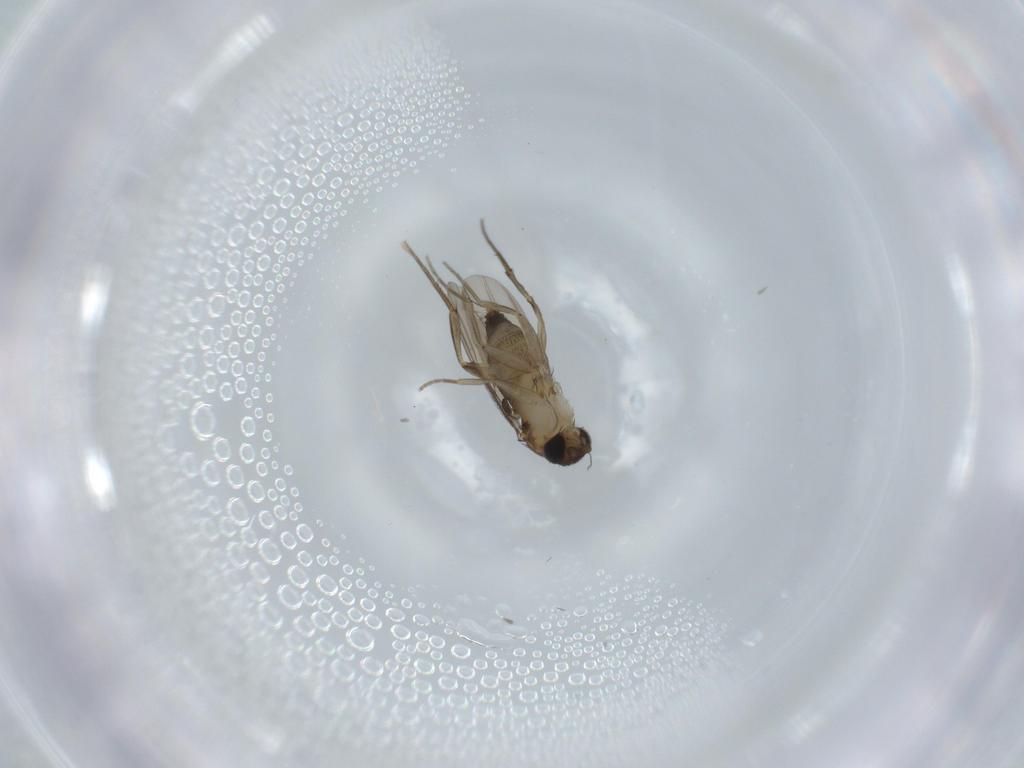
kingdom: Animalia
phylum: Arthropoda
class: Insecta
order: Diptera
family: Phoridae
